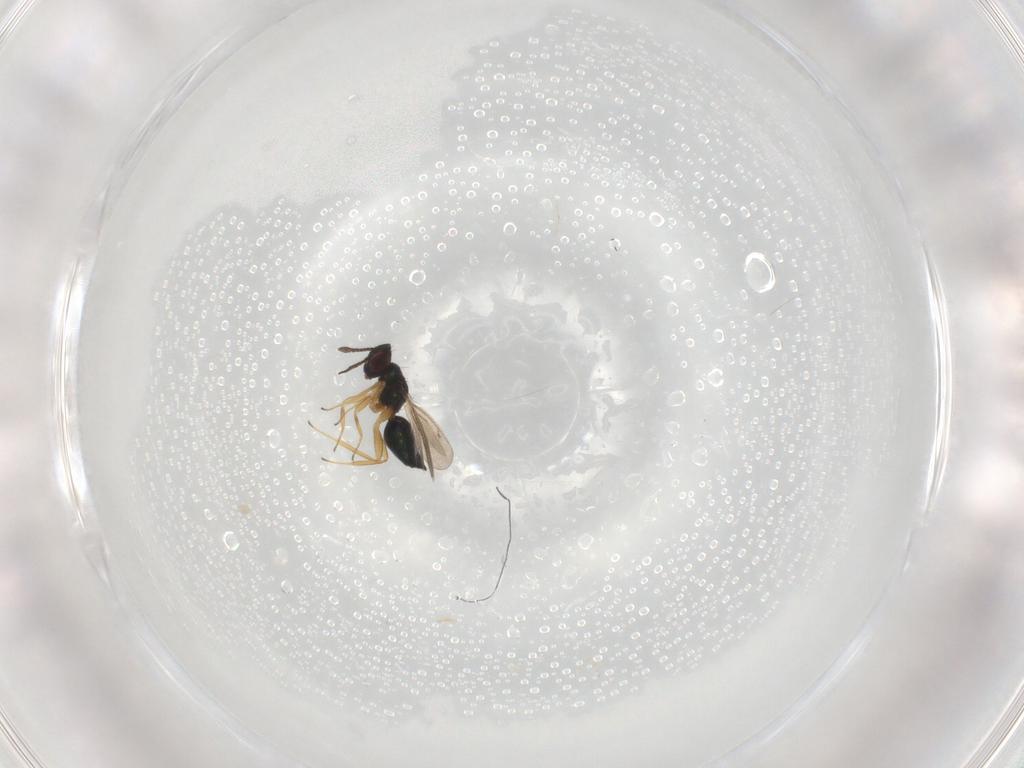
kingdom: Animalia
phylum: Arthropoda
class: Insecta
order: Hymenoptera
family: Tetracampidae
